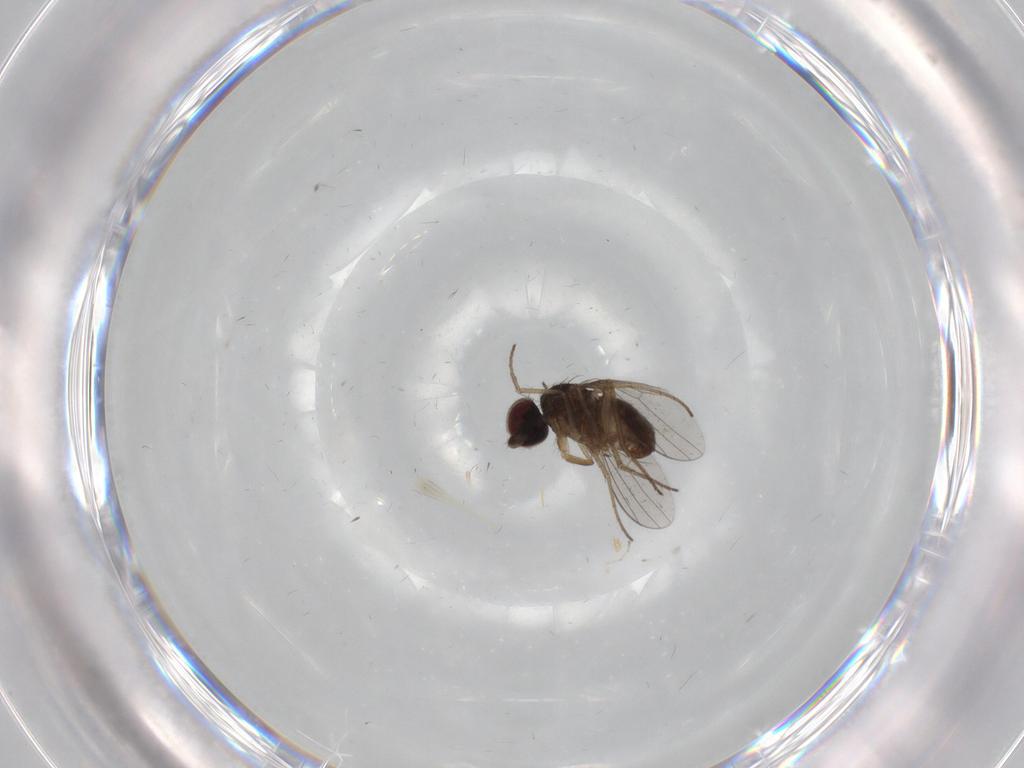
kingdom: Animalia
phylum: Arthropoda
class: Insecta
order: Diptera
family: Dolichopodidae
